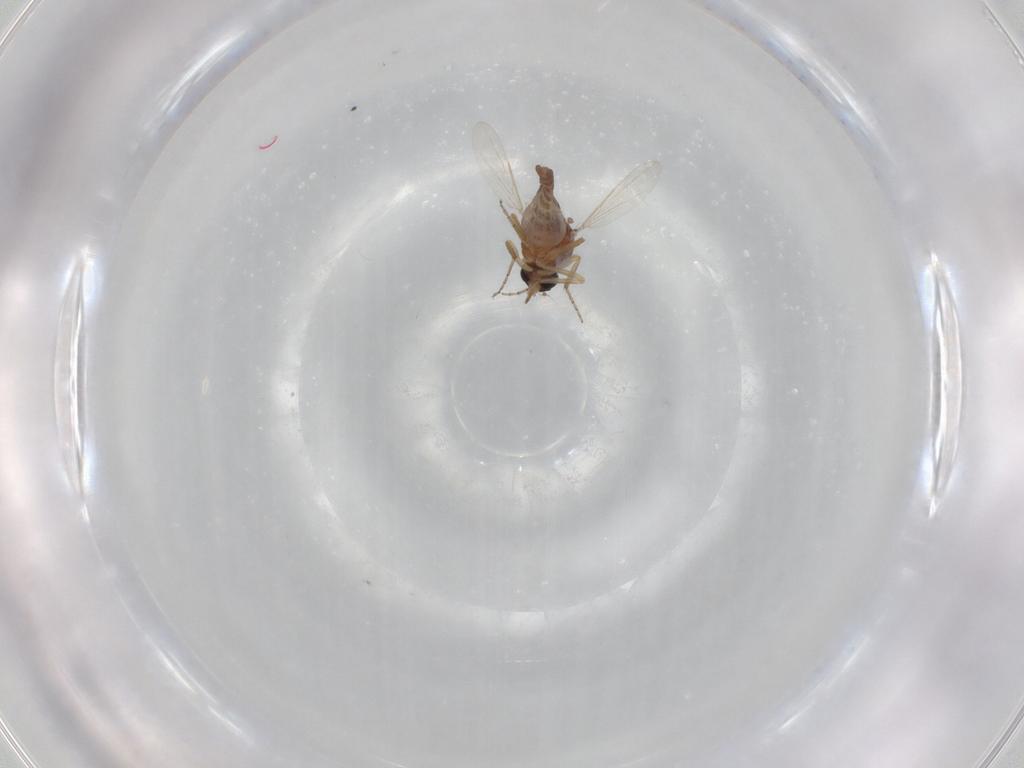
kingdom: Animalia
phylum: Arthropoda
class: Insecta
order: Diptera
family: Ceratopogonidae
